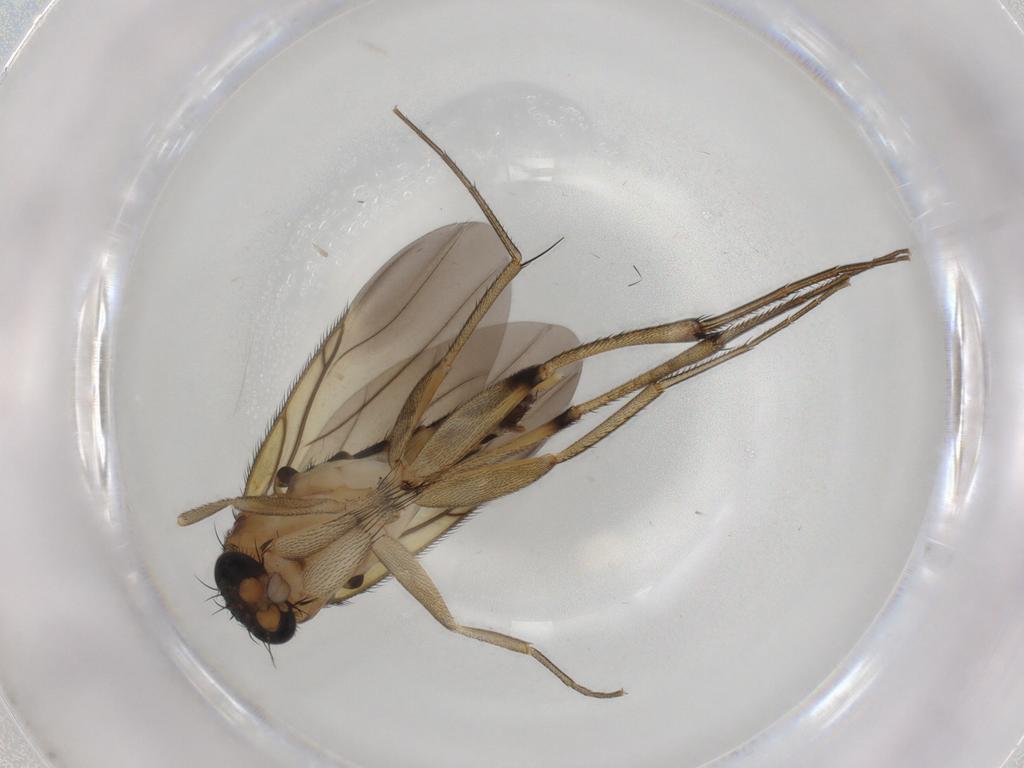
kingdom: Animalia
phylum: Arthropoda
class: Insecta
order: Diptera
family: Phoridae
